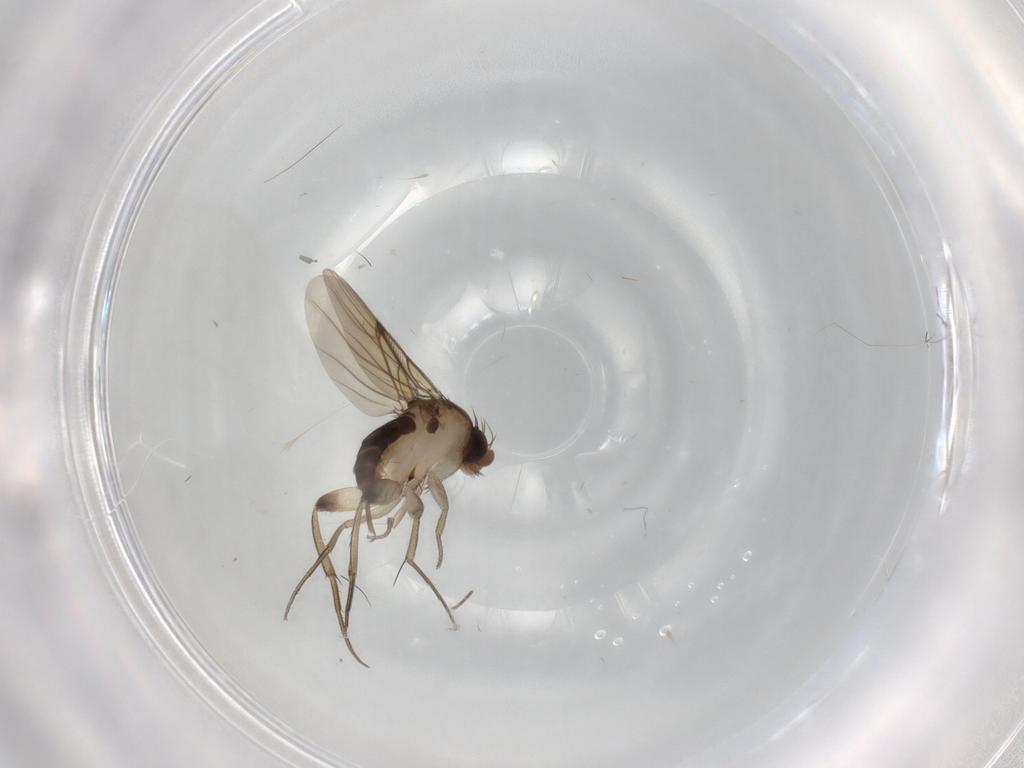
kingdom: Animalia
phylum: Arthropoda
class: Insecta
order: Diptera
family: Phoridae
